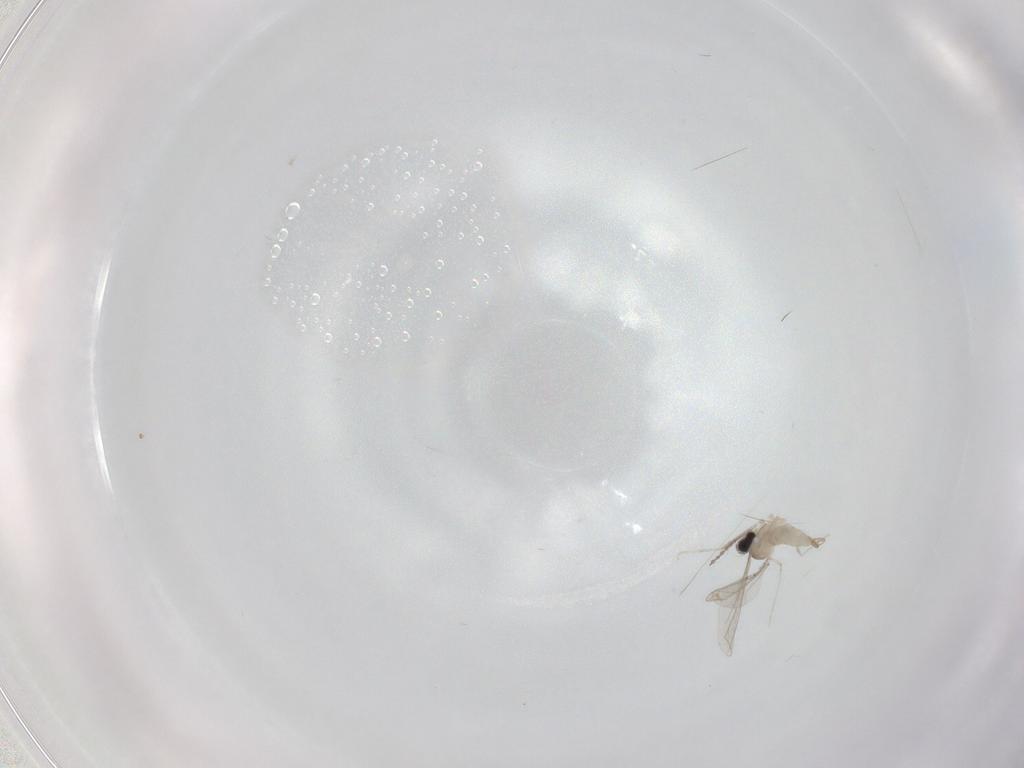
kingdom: Animalia
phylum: Arthropoda
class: Insecta
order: Diptera
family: Cecidomyiidae
